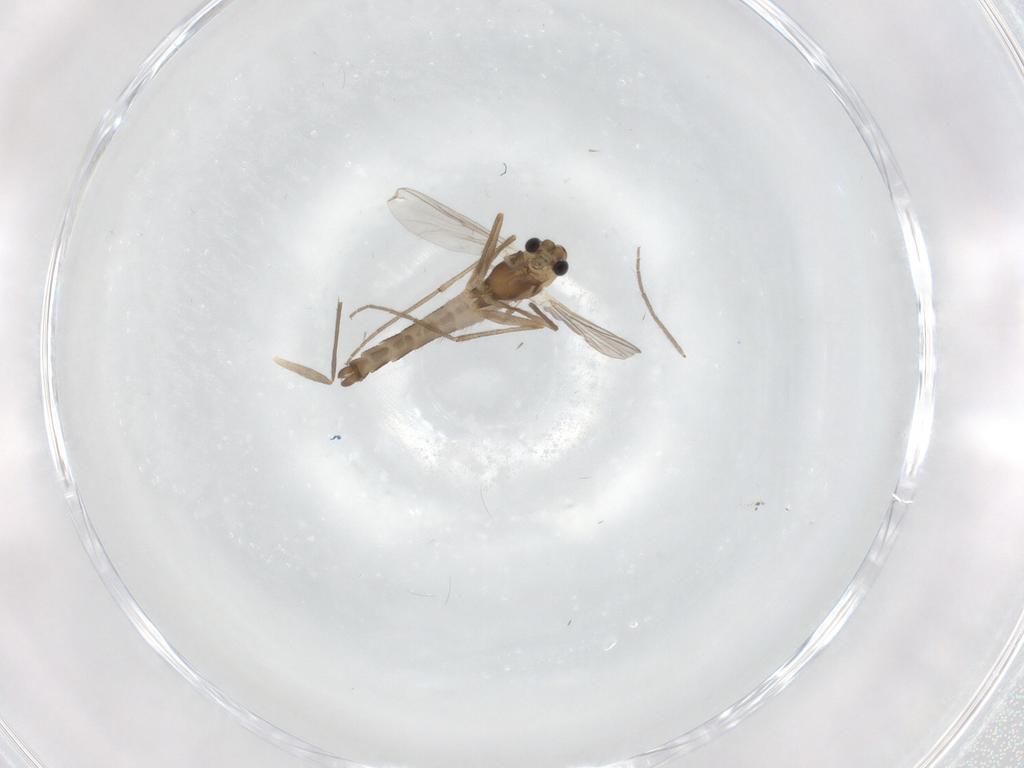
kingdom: Animalia
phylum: Arthropoda
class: Insecta
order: Diptera
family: Chironomidae
